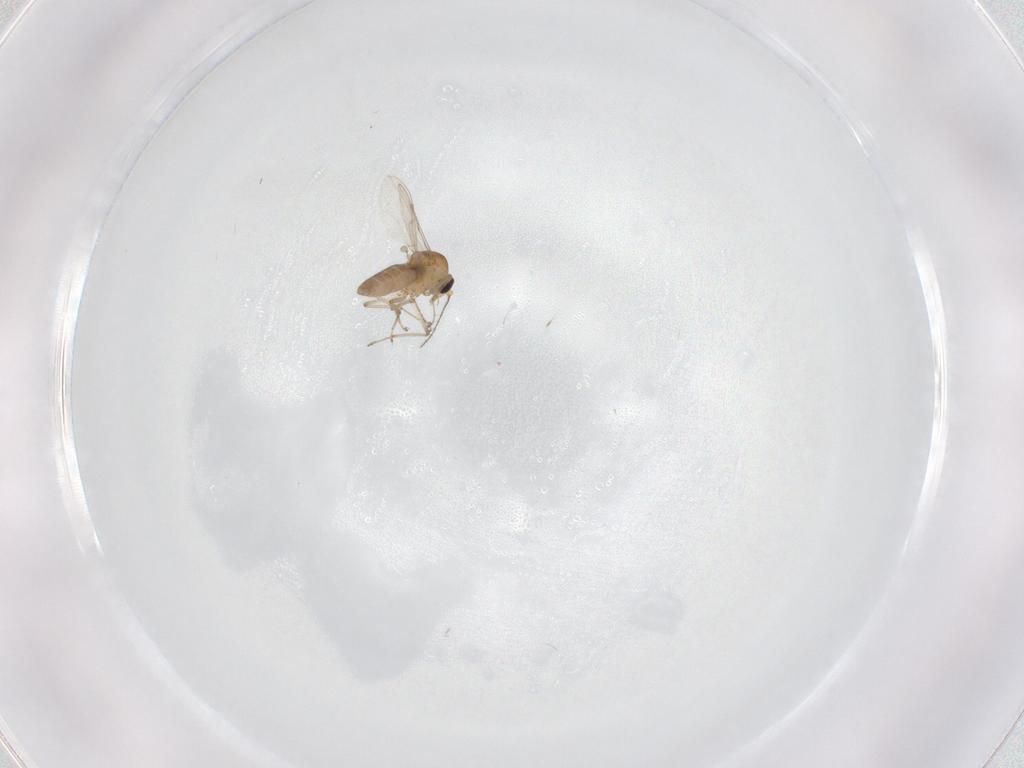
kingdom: Animalia
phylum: Arthropoda
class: Insecta
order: Diptera
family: Ceratopogonidae
